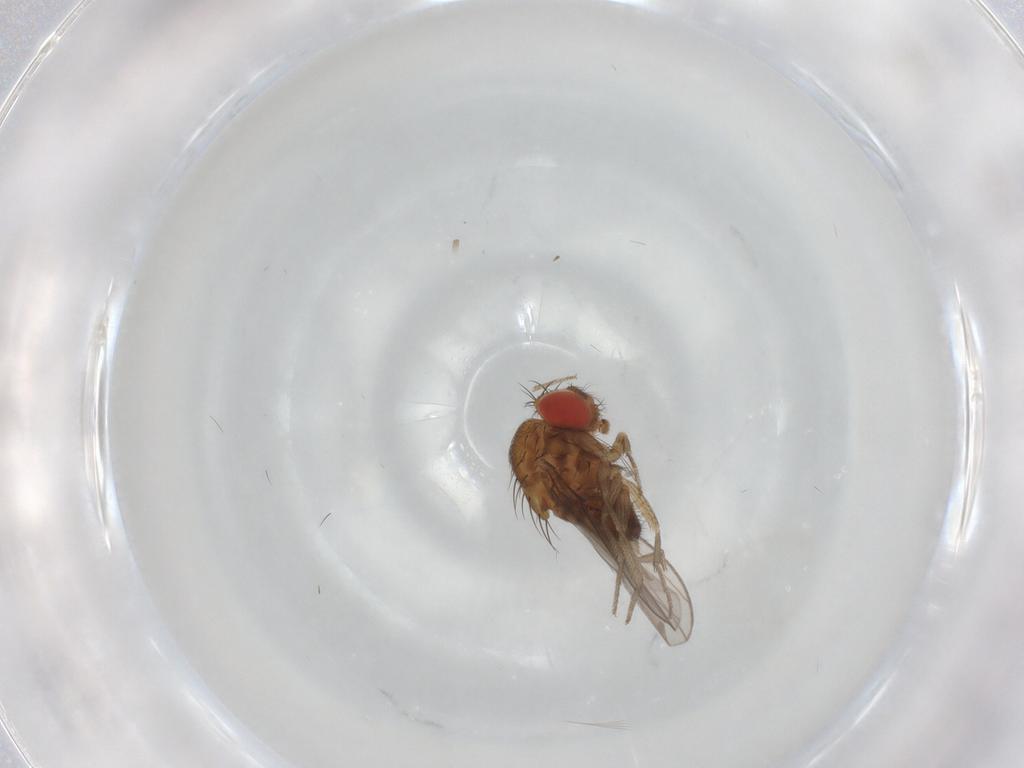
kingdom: Animalia
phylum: Arthropoda
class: Insecta
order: Diptera
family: Drosophilidae
